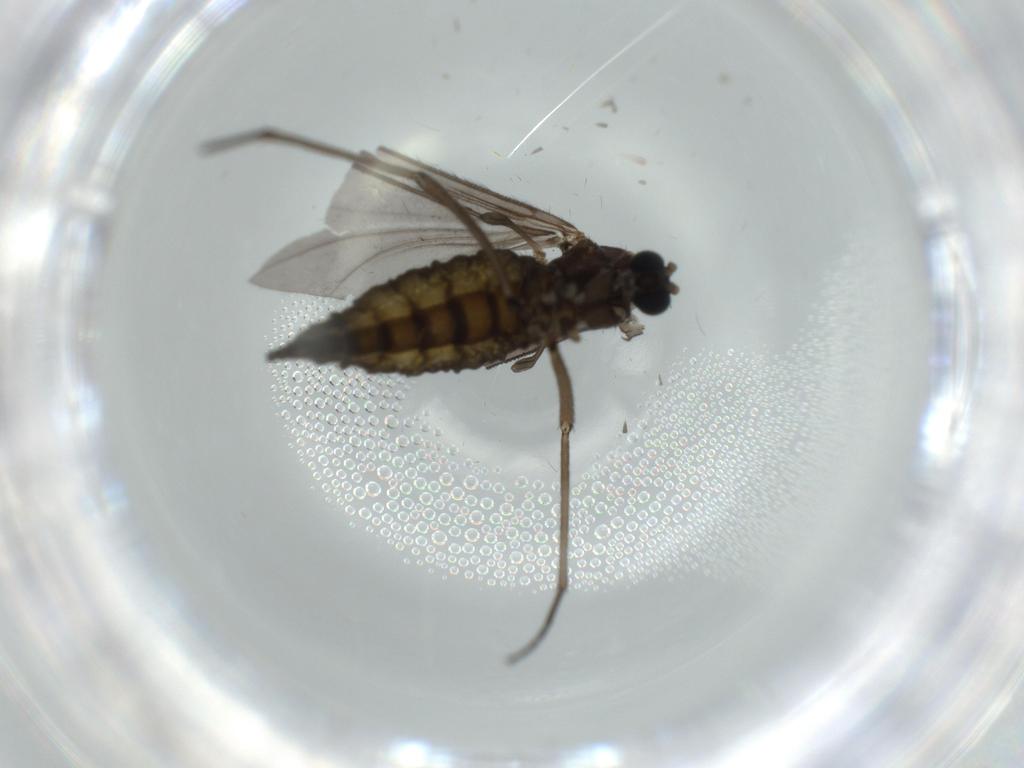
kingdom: Animalia
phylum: Arthropoda
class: Insecta
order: Diptera
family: Sciaridae
